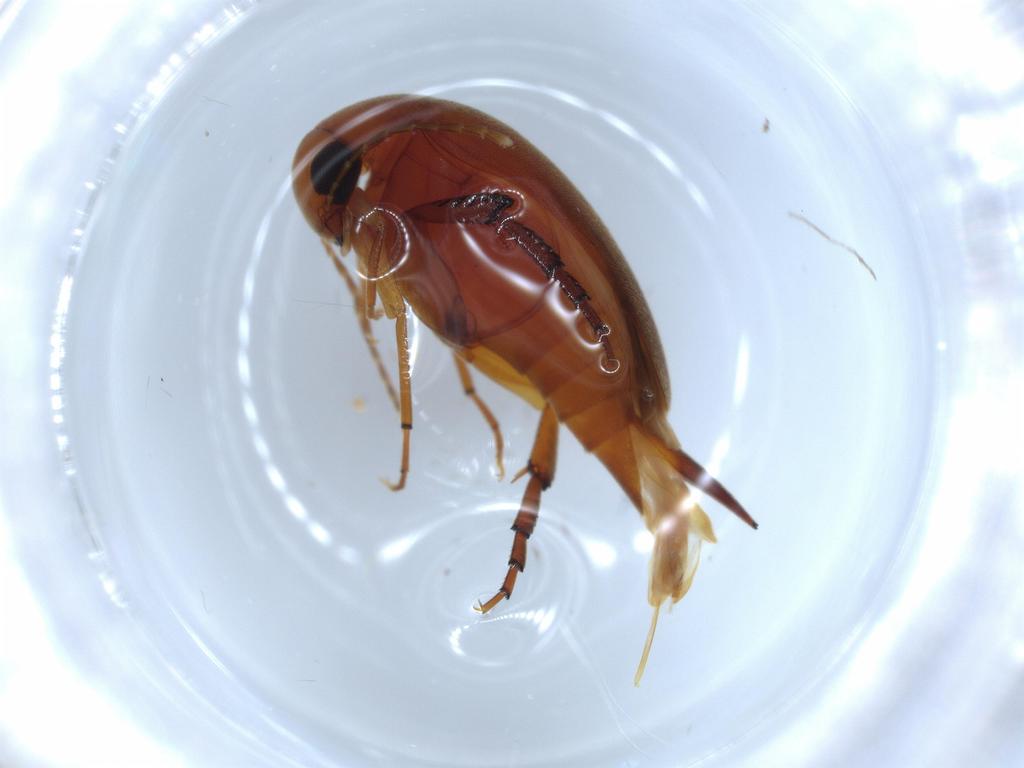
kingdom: Animalia
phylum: Arthropoda
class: Insecta
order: Coleoptera
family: Mordellidae
